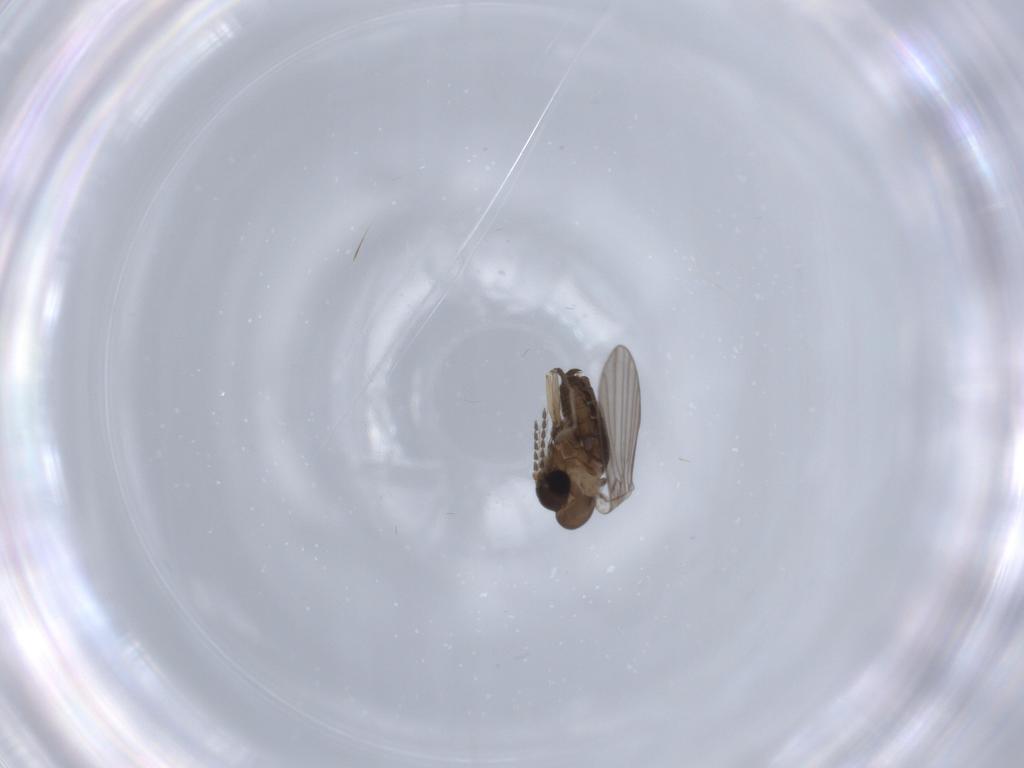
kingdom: Animalia
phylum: Arthropoda
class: Insecta
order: Diptera
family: Psychodidae
